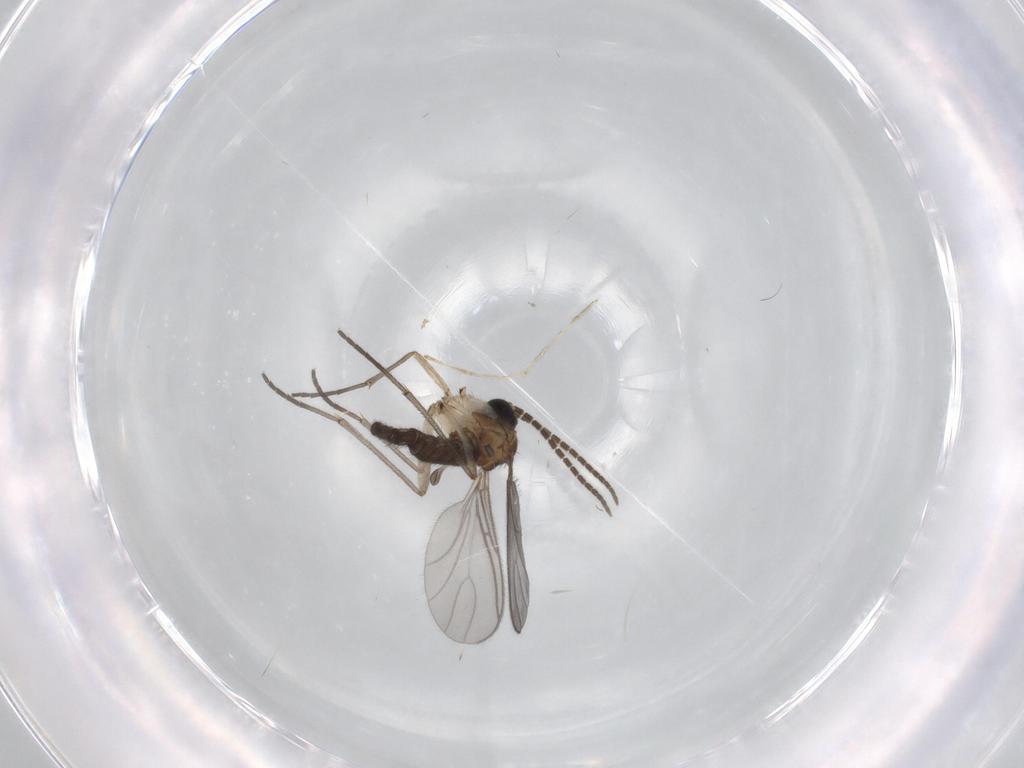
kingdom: Animalia
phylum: Arthropoda
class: Insecta
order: Diptera
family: Sciaridae
